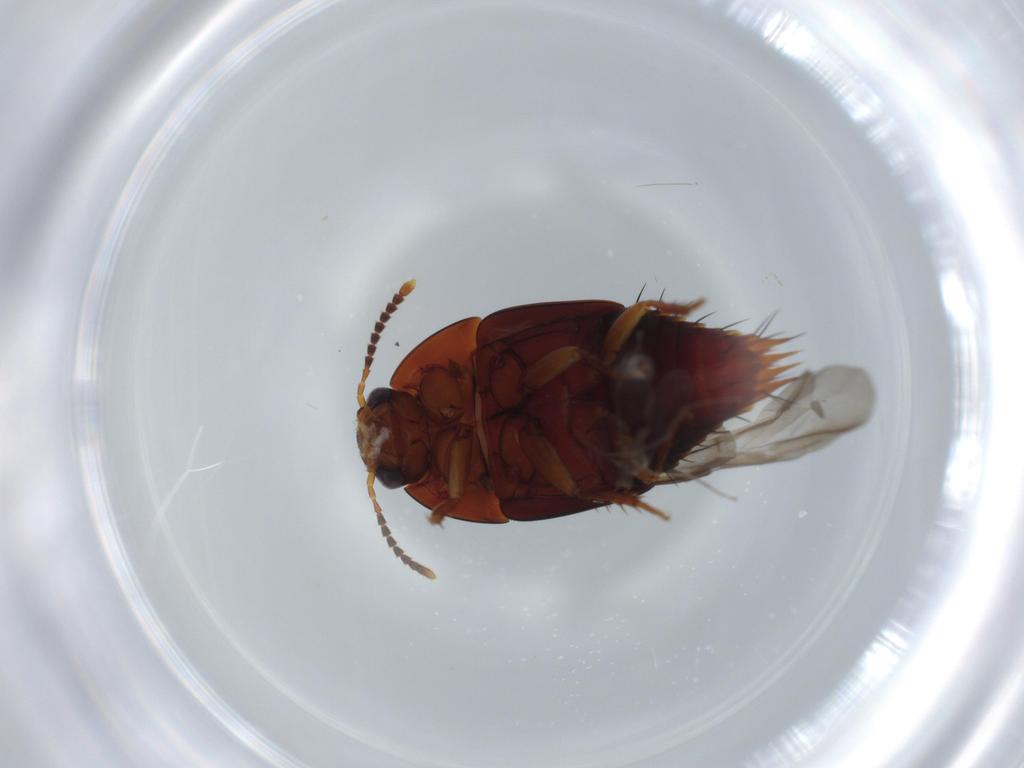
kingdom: Animalia
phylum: Arthropoda
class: Insecta
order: Coleoptera
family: Staphylinidae
